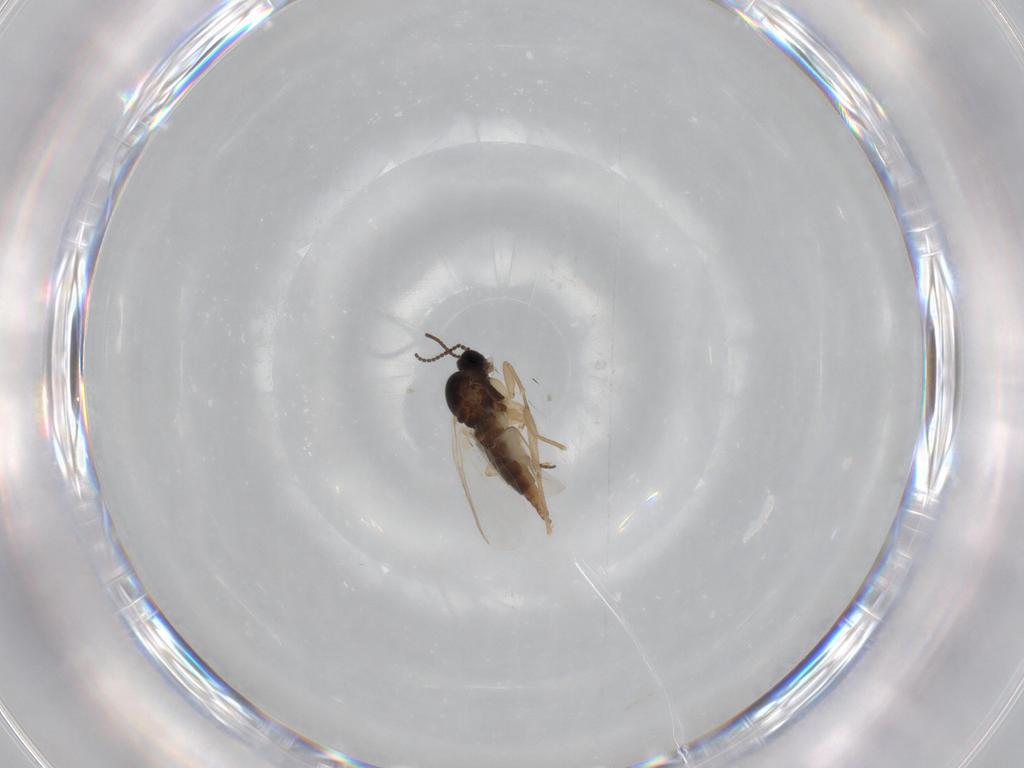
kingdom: Animalia
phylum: Arthropoda
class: Insecta
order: Diptera
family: Sciaridae
